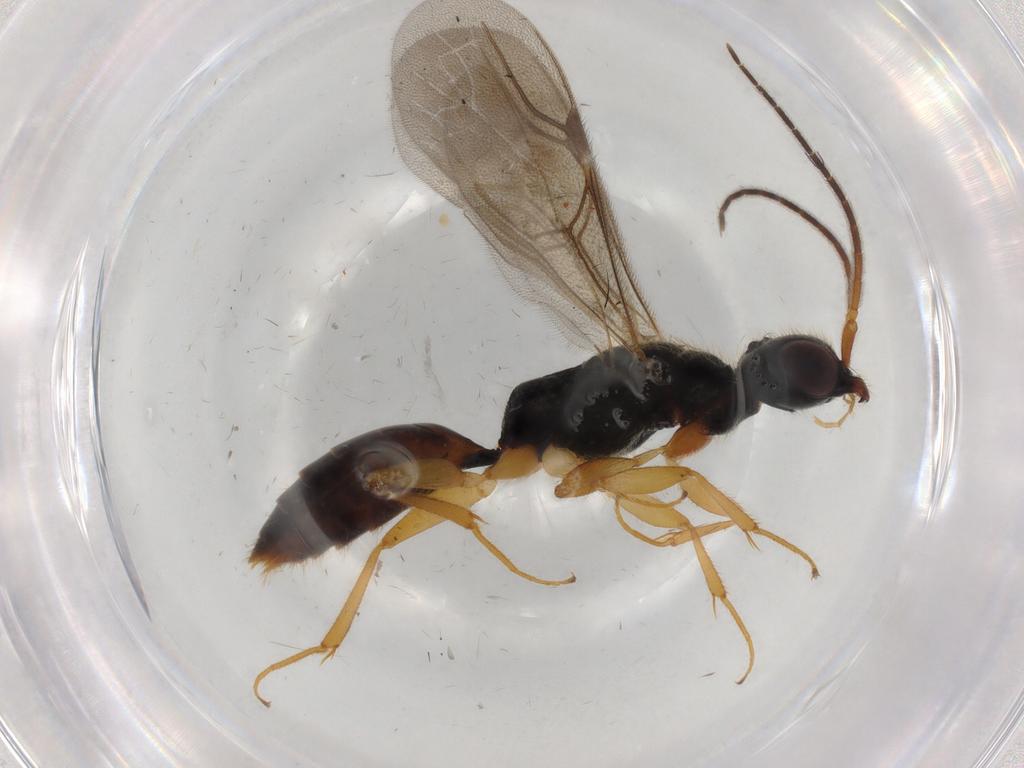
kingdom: Animalia
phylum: Arthropoda
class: Insecta
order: Hymenoptera
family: Bethylidae
